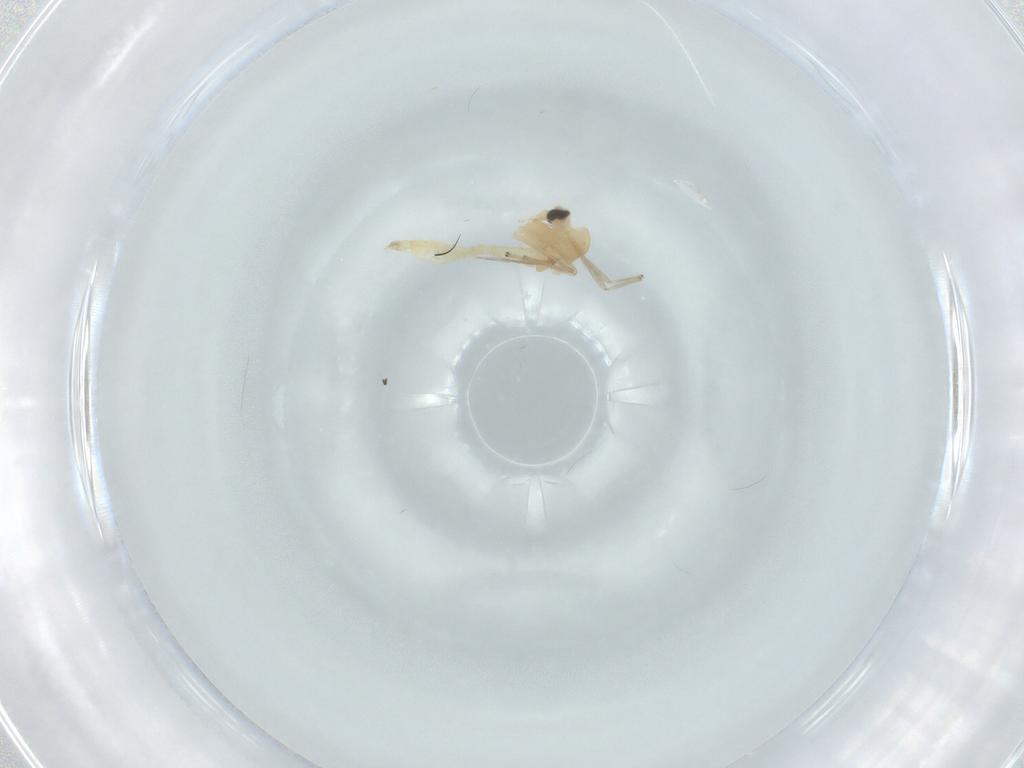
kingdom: Animalia
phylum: Arthropoda
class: Insecta
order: Diptera
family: Chironomidae
